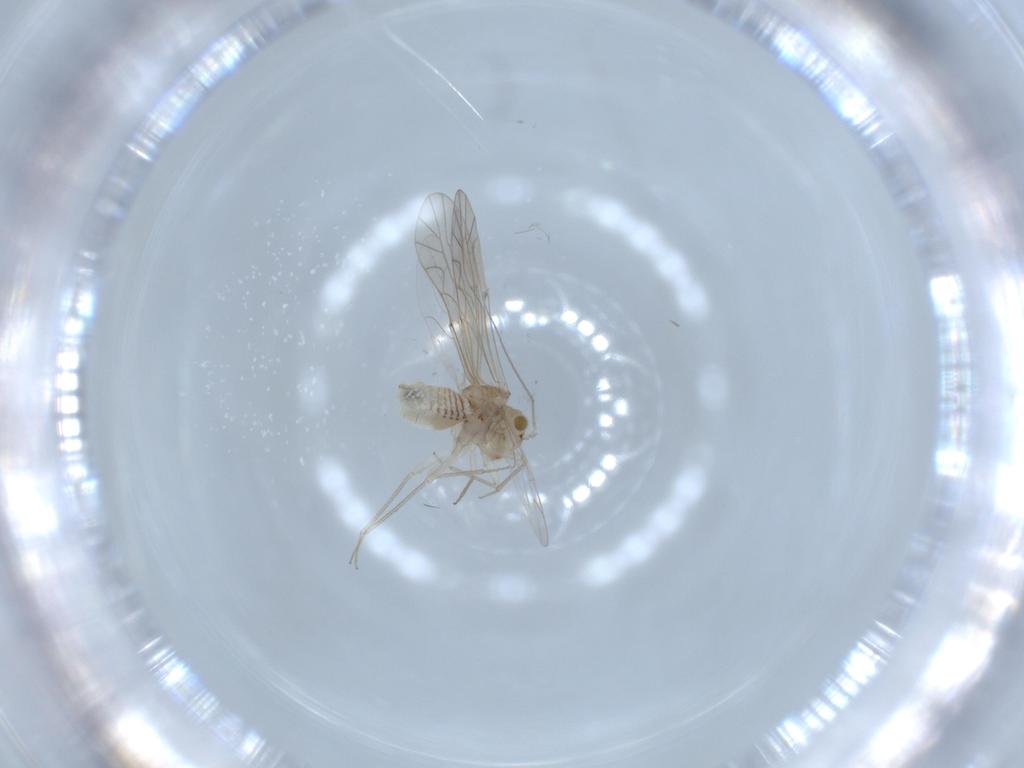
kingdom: Animalia
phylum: Arthropoda
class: Insecta
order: Psocodea
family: Lachesillidae
